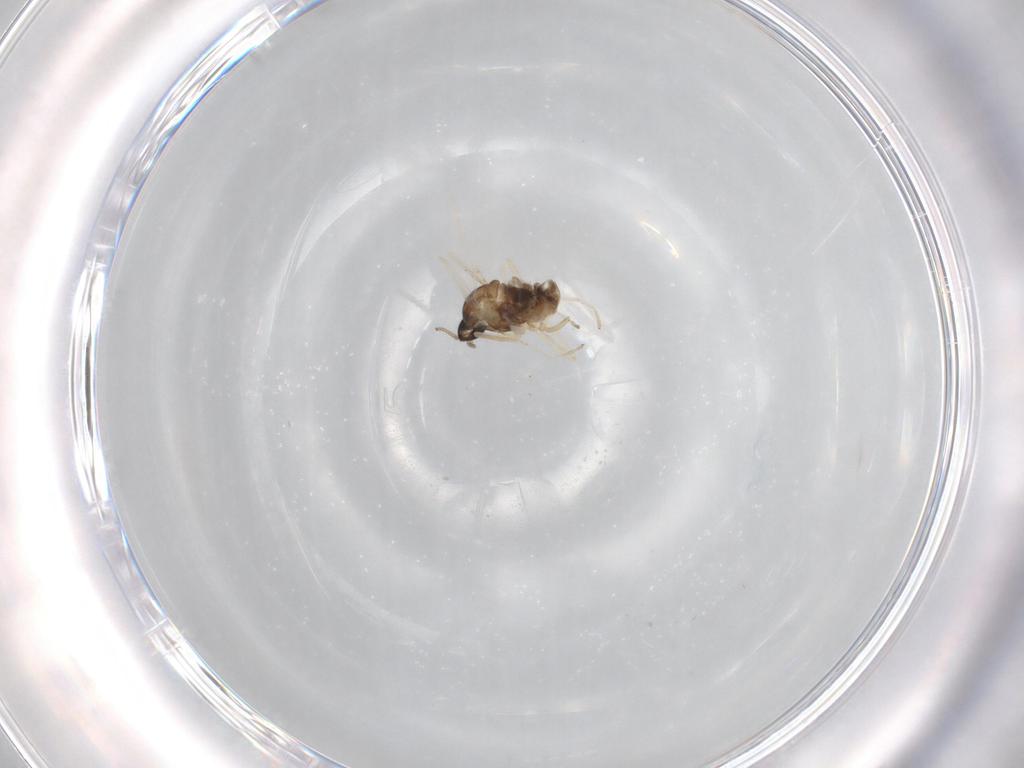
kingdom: Animalia
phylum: Arthropoda
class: Insecta
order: Diptera
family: Cecidomyiidae
